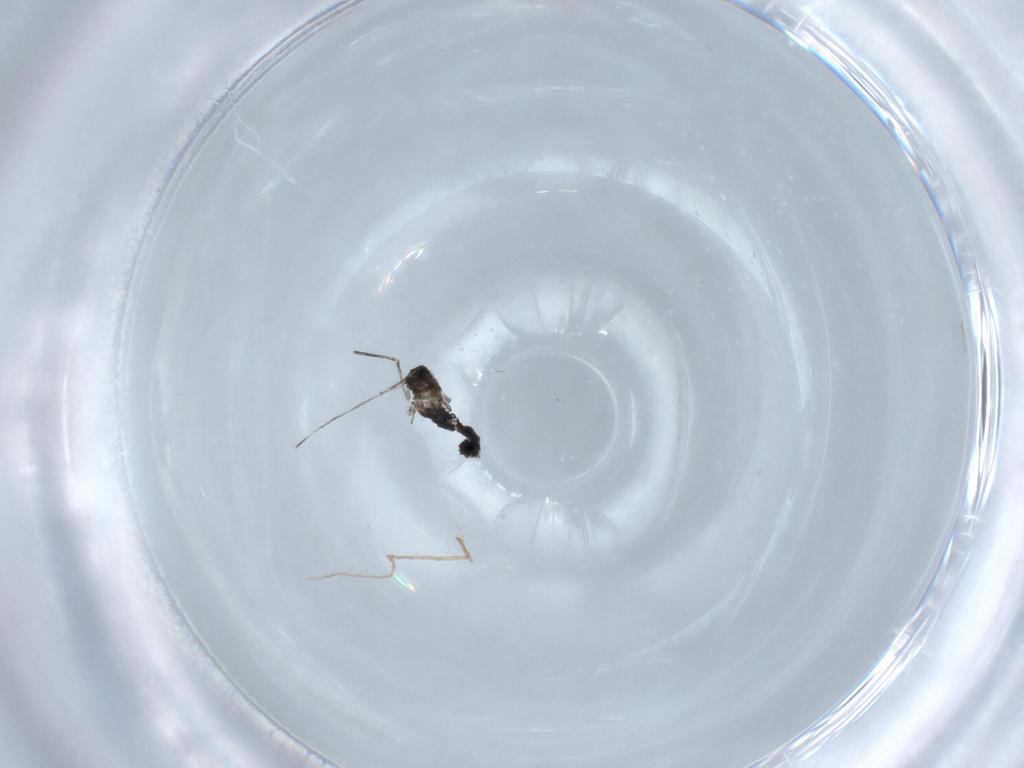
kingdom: Animalia
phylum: Arthropoda
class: Insecta
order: Diptera
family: Cecidomyiidae
